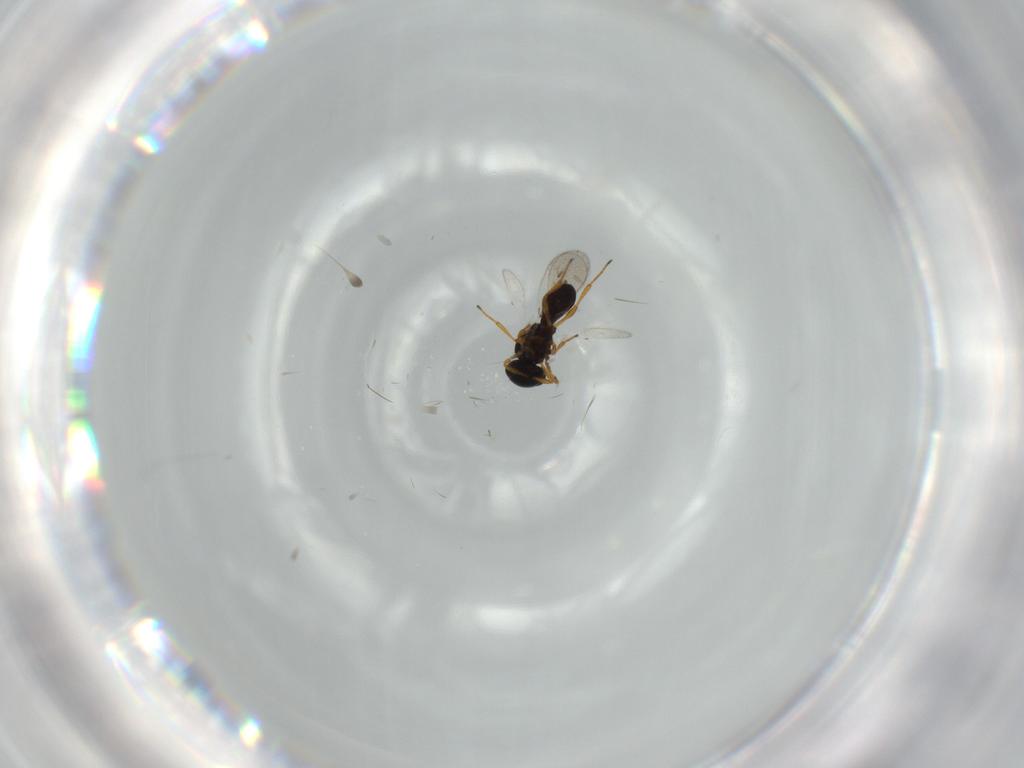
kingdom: Animalia
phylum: Arthropoda
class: Insecta
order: Hymenoptera
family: Platygastridae
